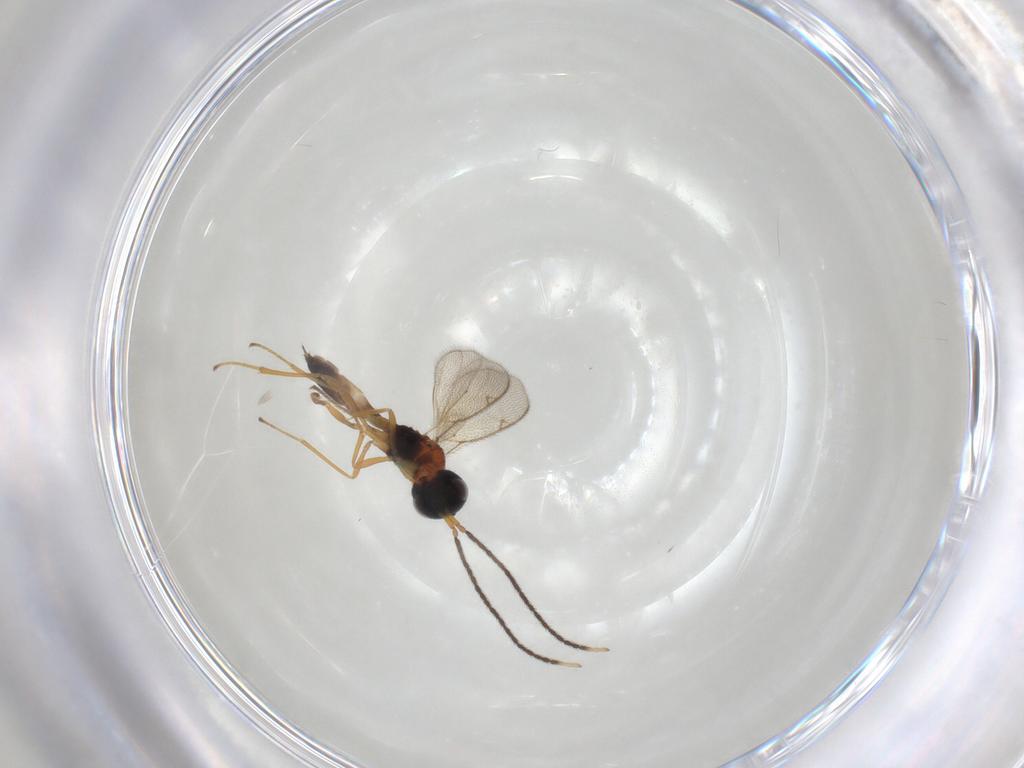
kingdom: Animalia
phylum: Arthropoda
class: Insecta
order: Hymenoptera
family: Pteromalidae
